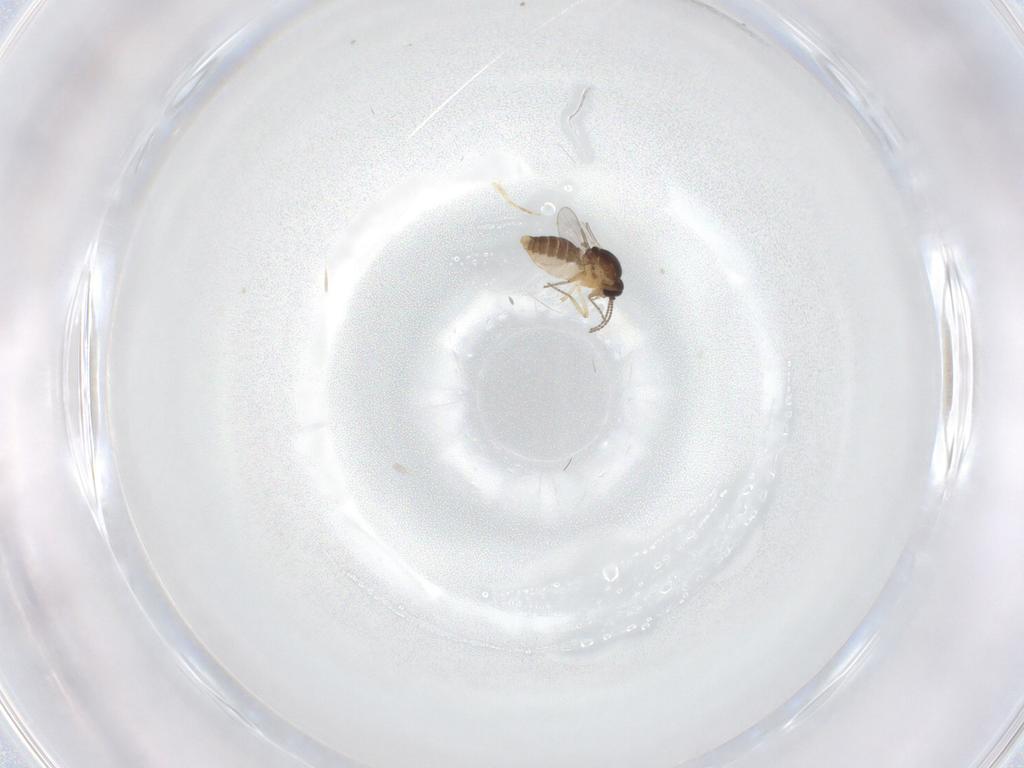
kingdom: Animalia
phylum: Arthropoda
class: Insecta
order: Diptera
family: Ceratopogonidae
